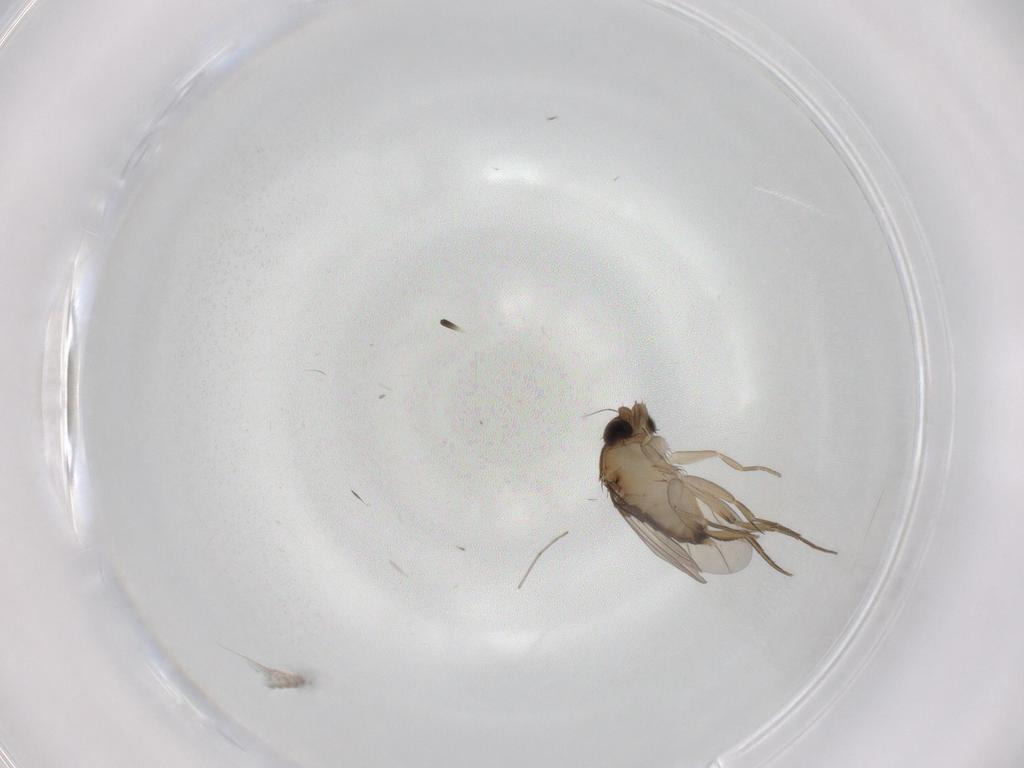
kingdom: Animalia
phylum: Arthropoda
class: Insecta
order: Diptera
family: Phoridae
